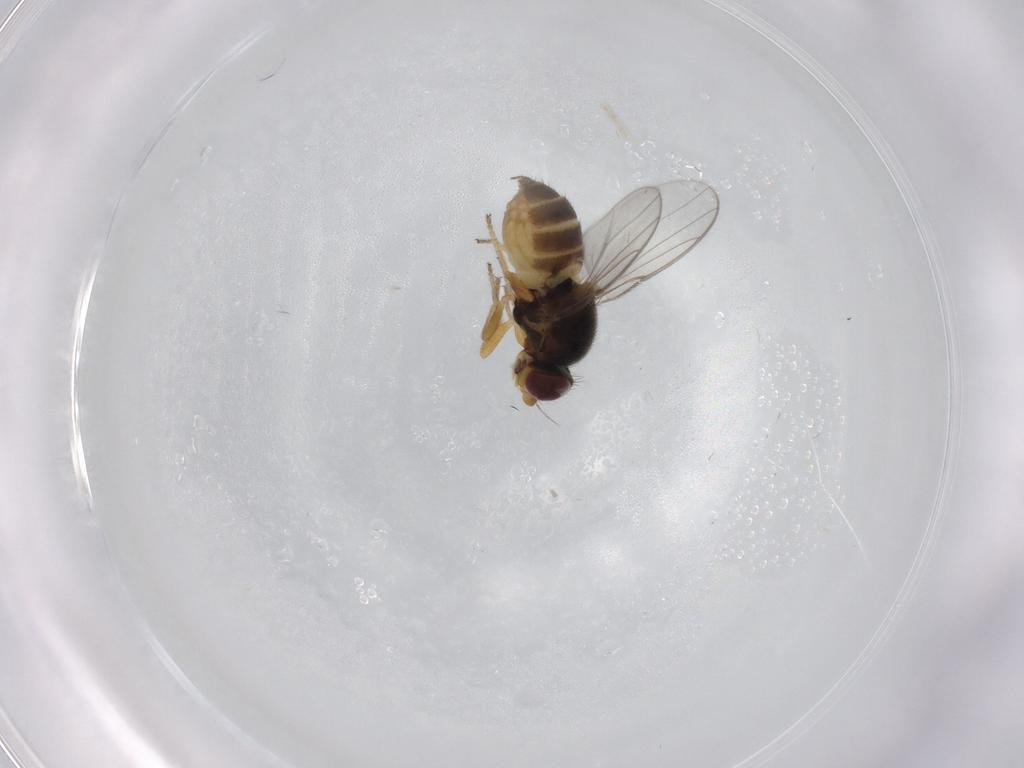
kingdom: Animalia
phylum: Arthropoda
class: Insecta
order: Diptera
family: Chloropidae
